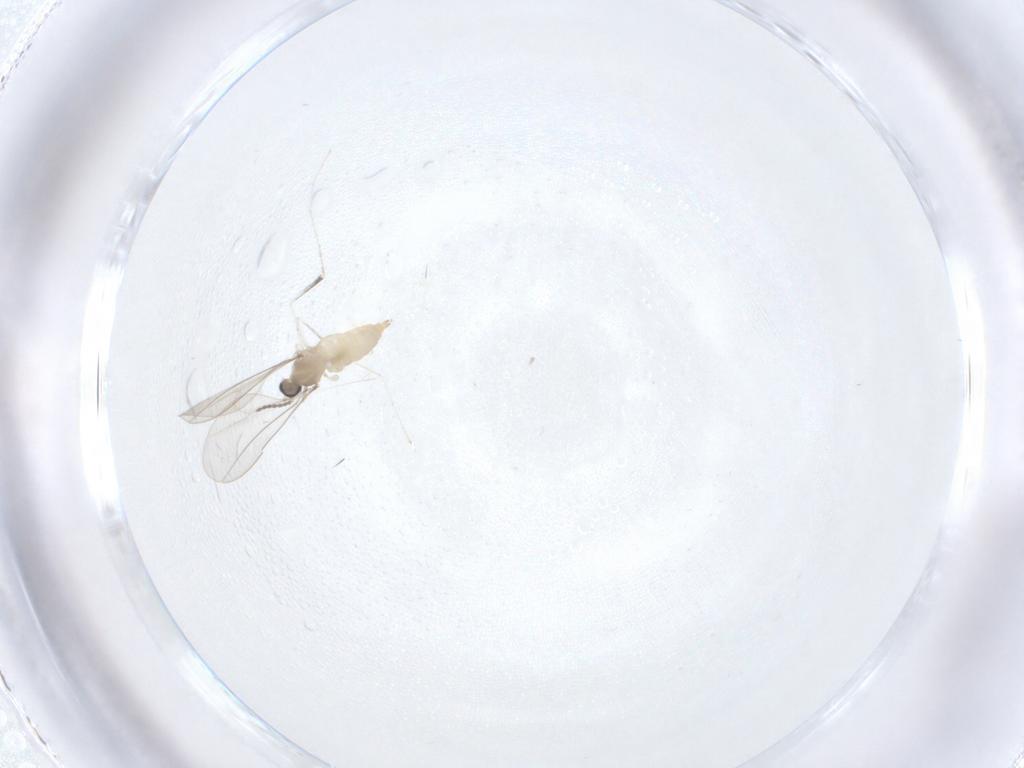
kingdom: Animalia
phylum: Arthropoda
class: Insecta
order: Diptera
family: Cecidomyiidae
